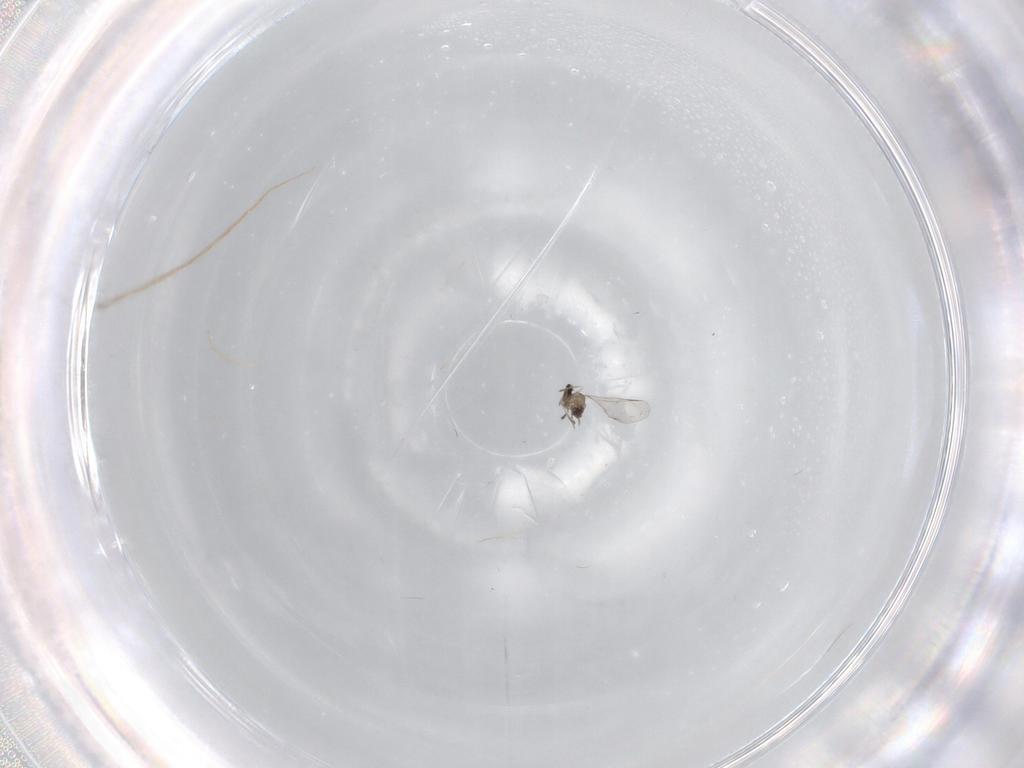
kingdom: Animalia
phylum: Arthropoda
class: Insecta
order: Diptera
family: Cecidomyiidae
